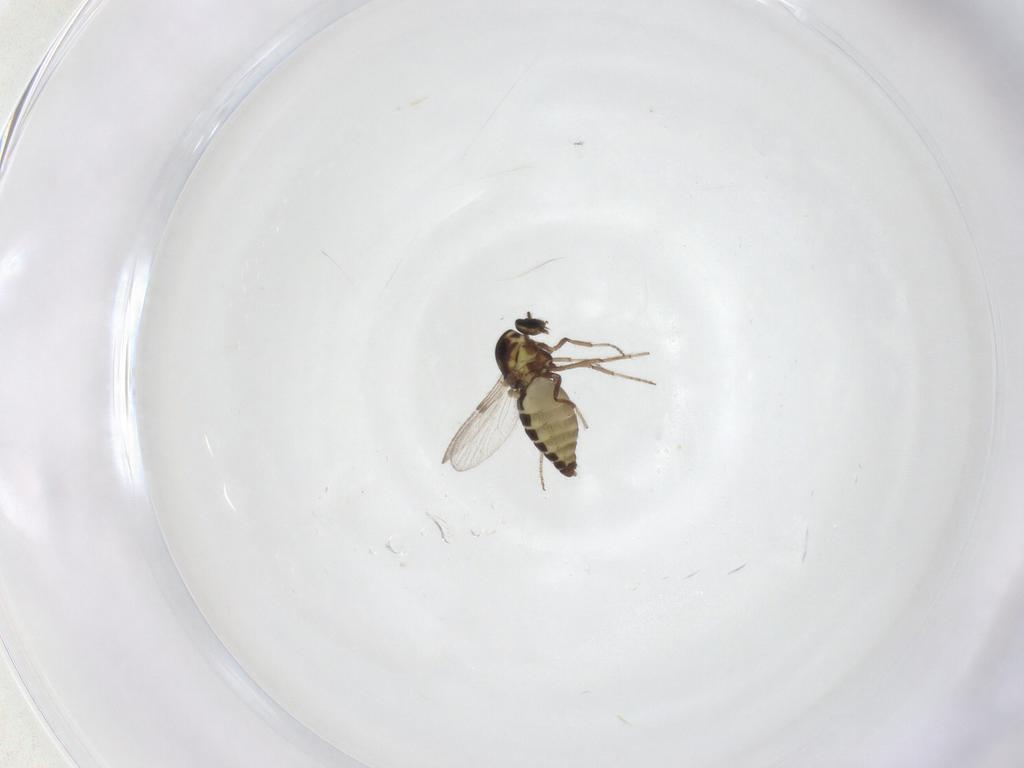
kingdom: Animalia
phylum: Arthropoda
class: Insecta
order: Diptera
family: Ceratopogonidae
